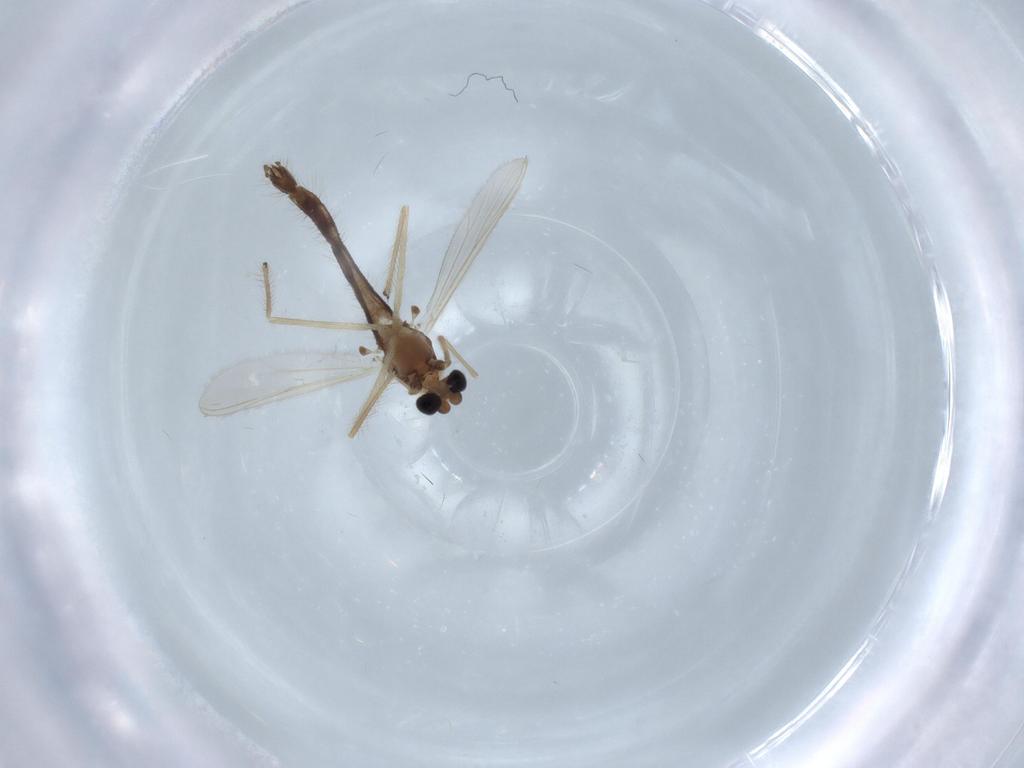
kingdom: Animalia
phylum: Arthropoda
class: Insecta
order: Diptera
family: Chironomidae
